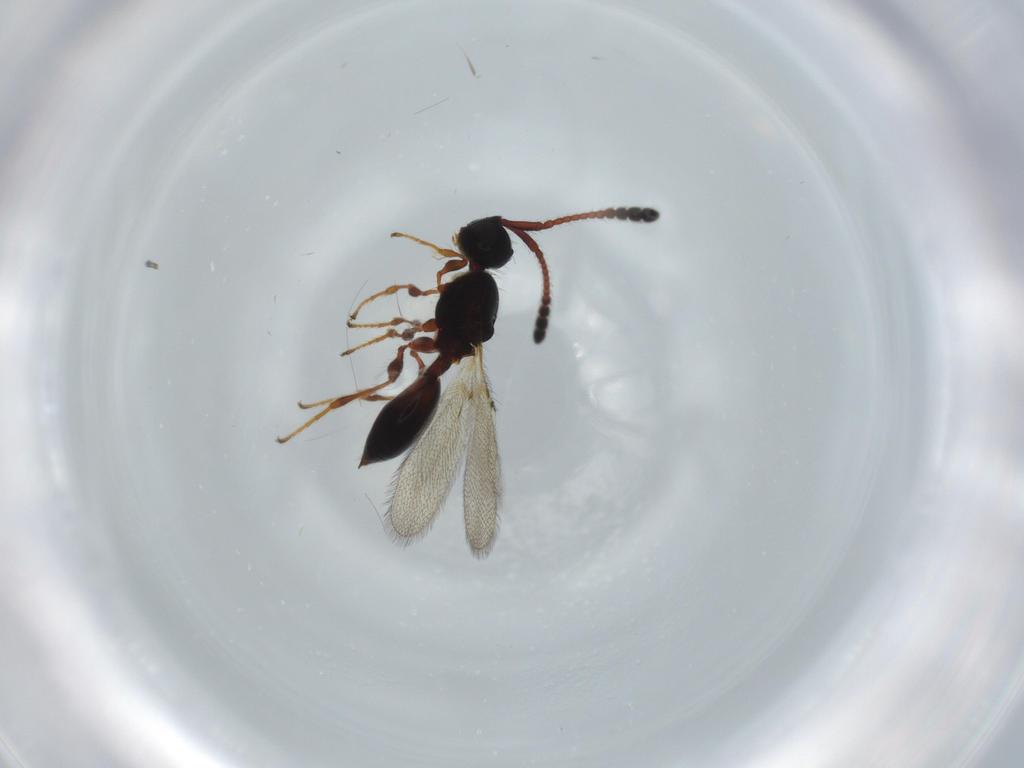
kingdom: Animalia
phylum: Arthropoda
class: Insecta
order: Hymenoptera
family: Diapriidae
